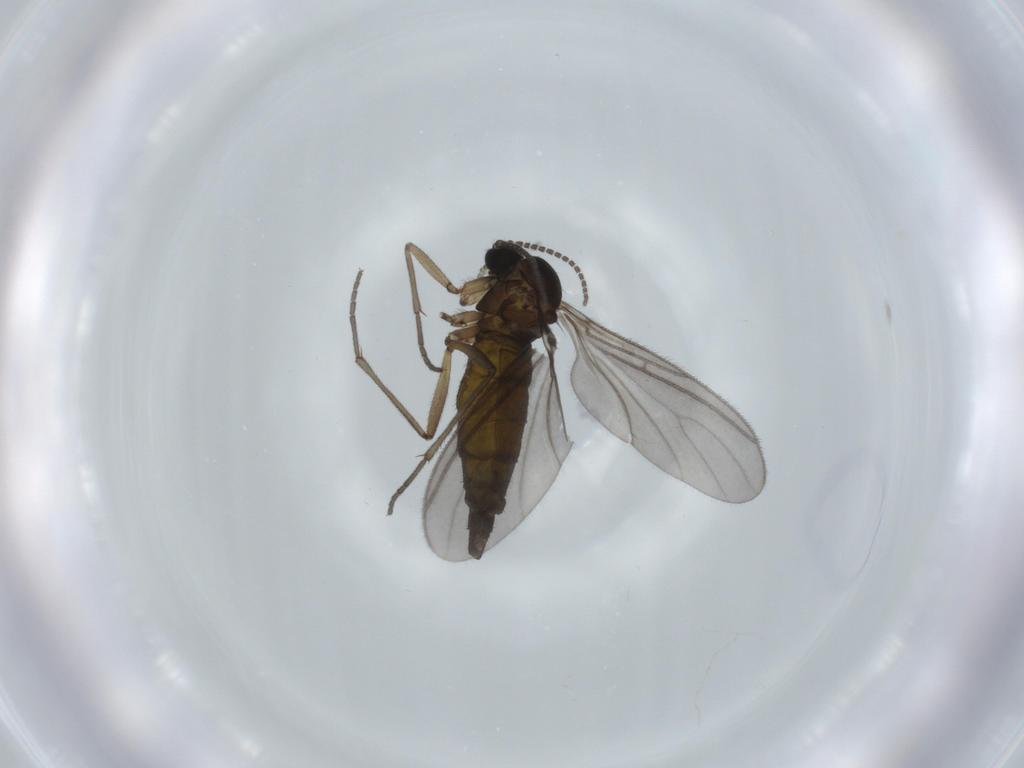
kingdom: Animalia
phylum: Arthropoda
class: Insecta
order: Diptera
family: Sciaridae
